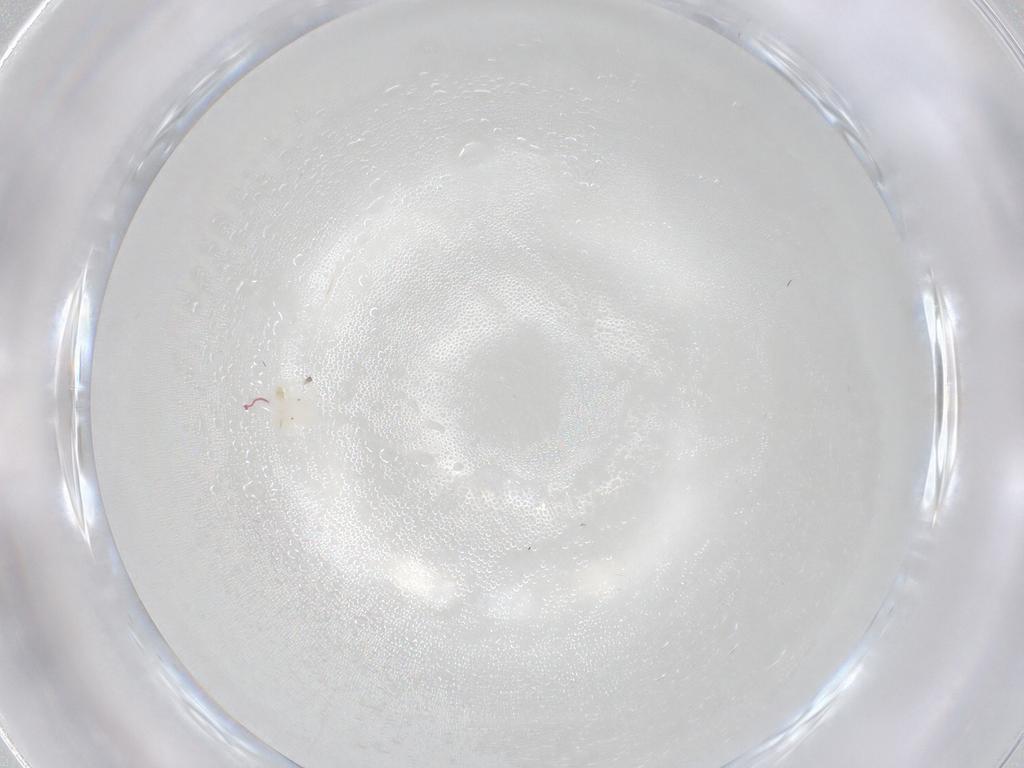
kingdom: Animalia
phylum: Arthropoda
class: Arachnida
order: Trombidiformes
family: Anystidae
